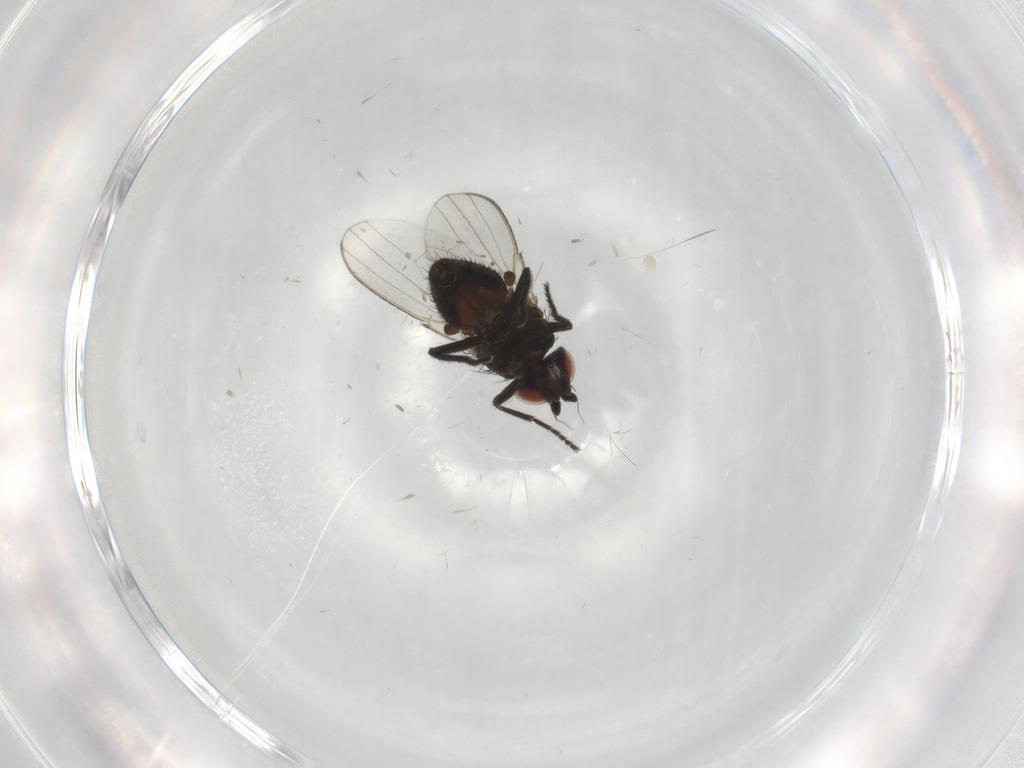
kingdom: Animalia
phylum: Arthropoda
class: Insecta
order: Diptera
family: Milichiidae
